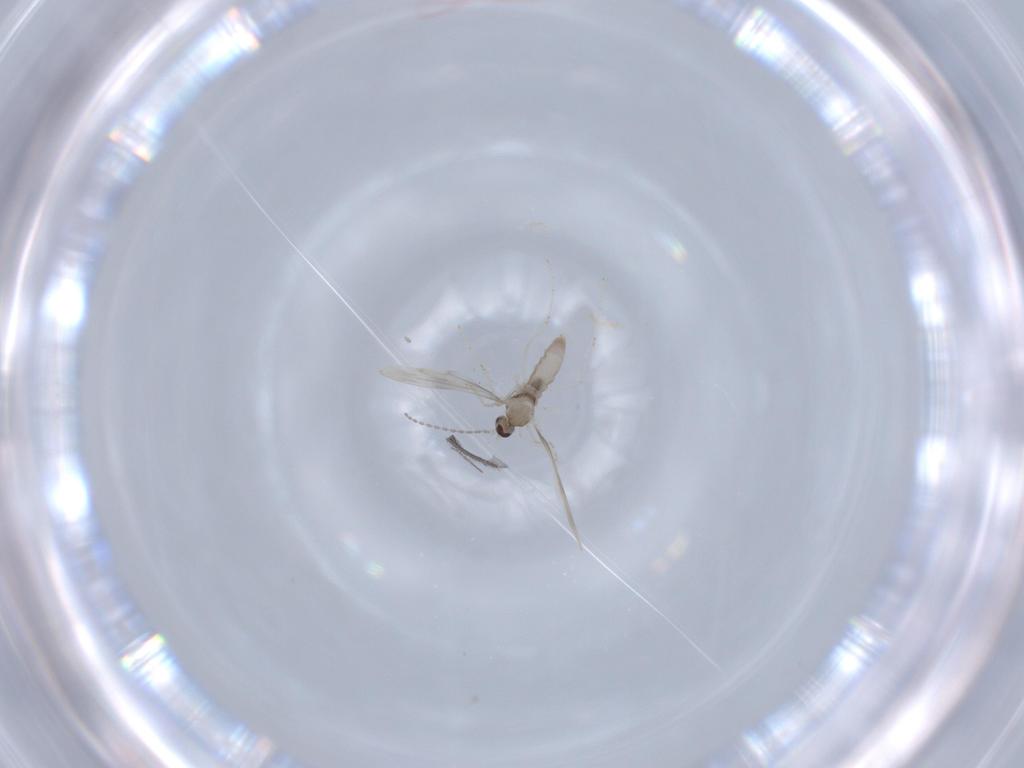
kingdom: Animalia
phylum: Arthropoda
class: Insecta
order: Diptera
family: Cecidomyiidae
